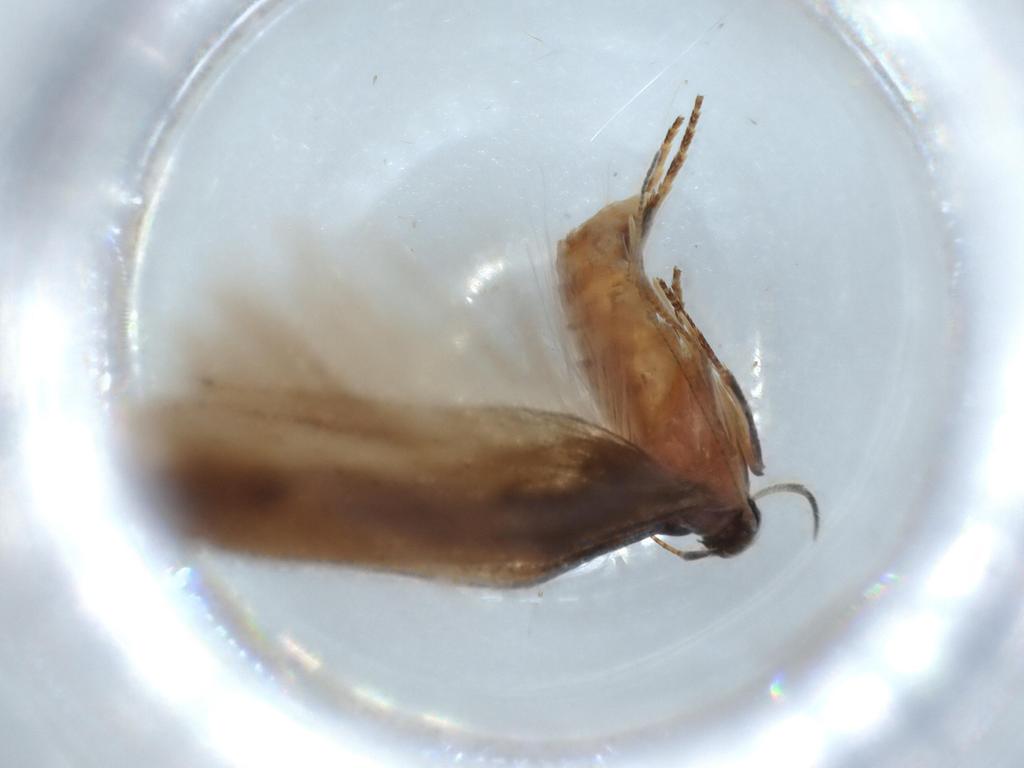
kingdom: Animalia
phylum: Arthropoda
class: Insecta
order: Lepidoptera
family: Stathmopodidae
